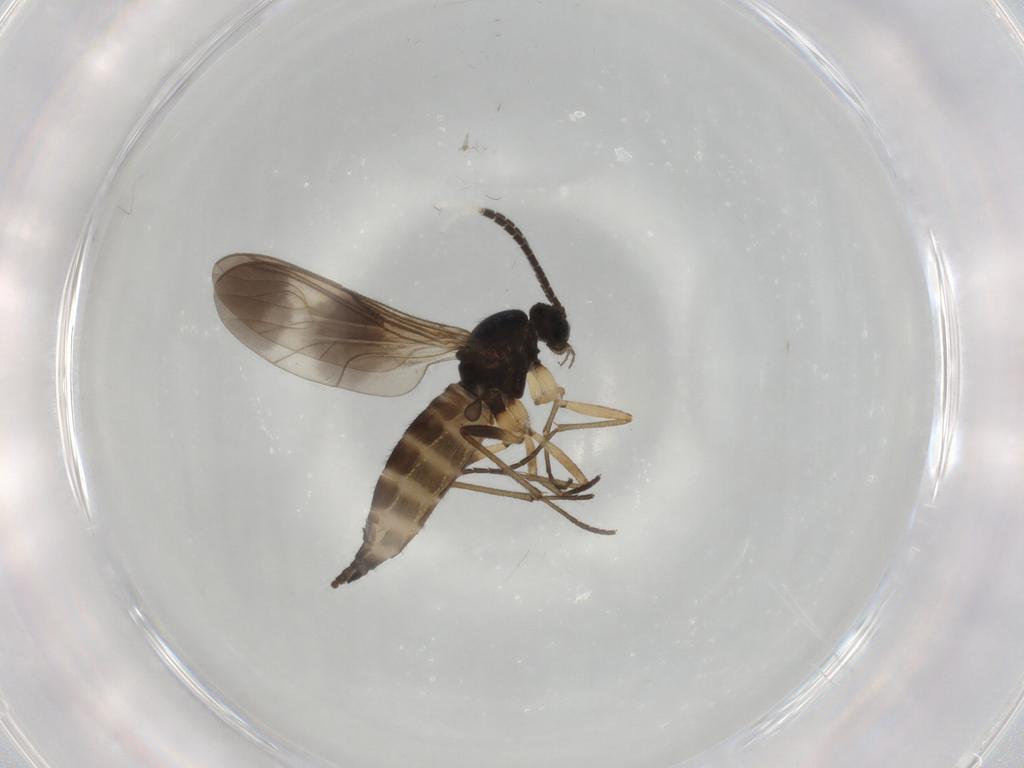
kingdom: Animalia
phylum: Arthropoda
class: Insecta
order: Diptera
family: Sciaridae
